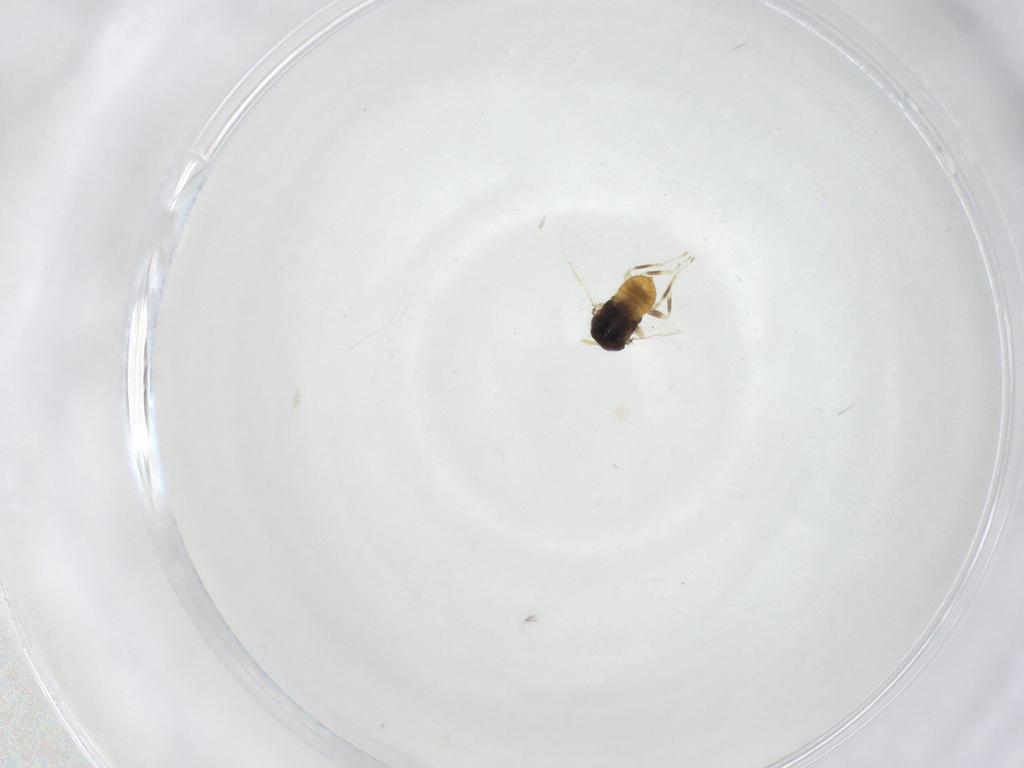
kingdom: Animalia
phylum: Arthropoda
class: Insecta
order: Hymenoptera
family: Aphelinidae
